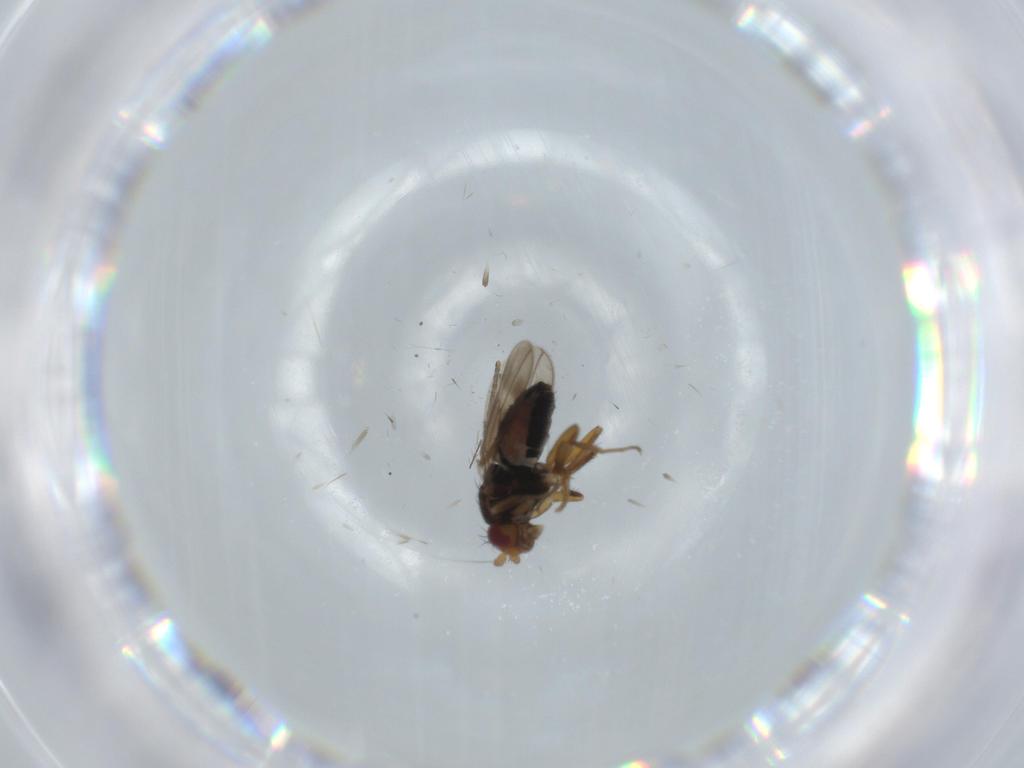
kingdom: Animalia
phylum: Arthropoda
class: Insecta
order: Diptera
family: Sphaeroceridae
